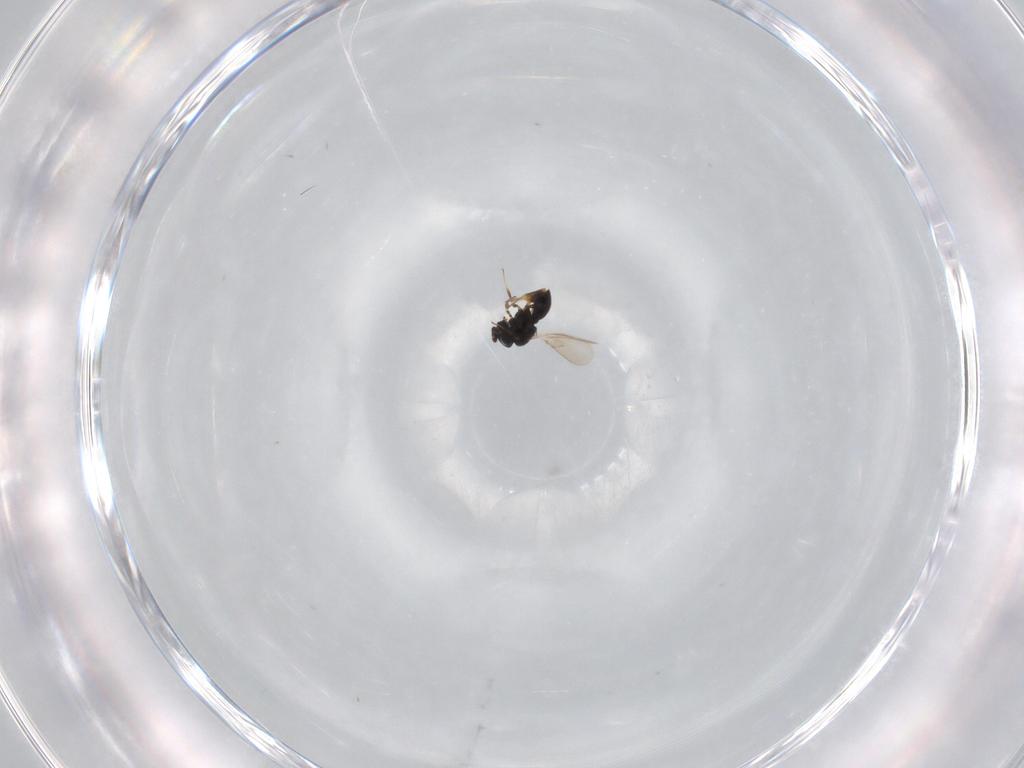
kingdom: Animalia
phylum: Arthropoda
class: Insecta
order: Hymenoptera
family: Scelionidae
